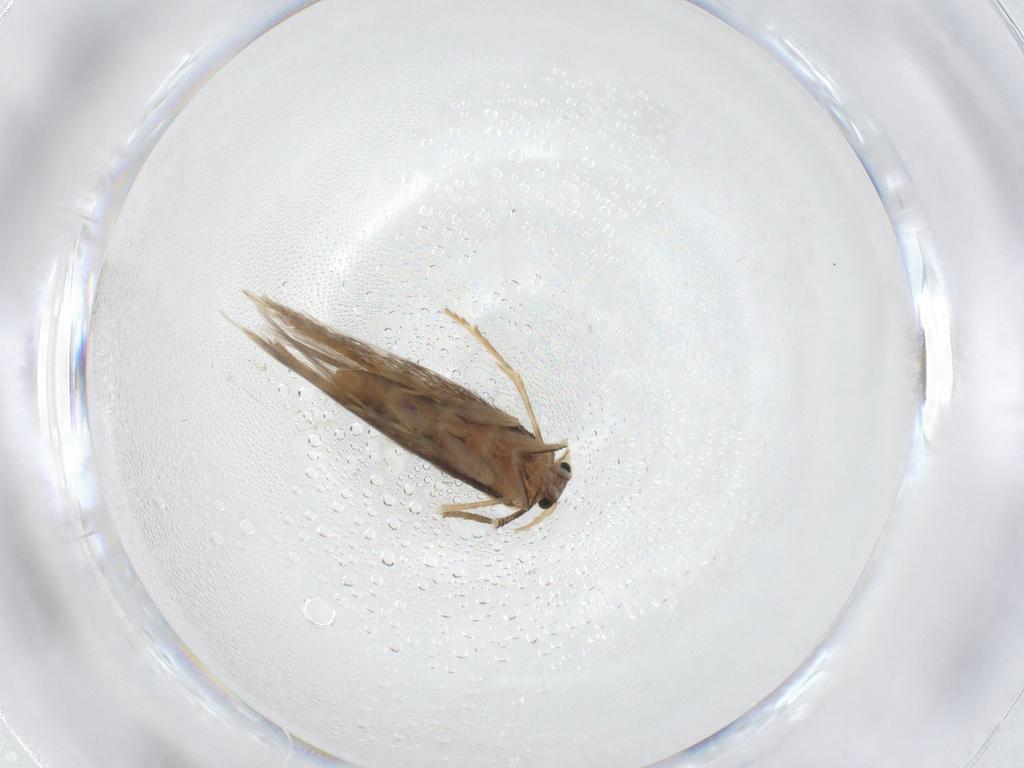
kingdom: Animalia
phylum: Arthropoda
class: Insecta
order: Lepidoptera
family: Nepticulidae
